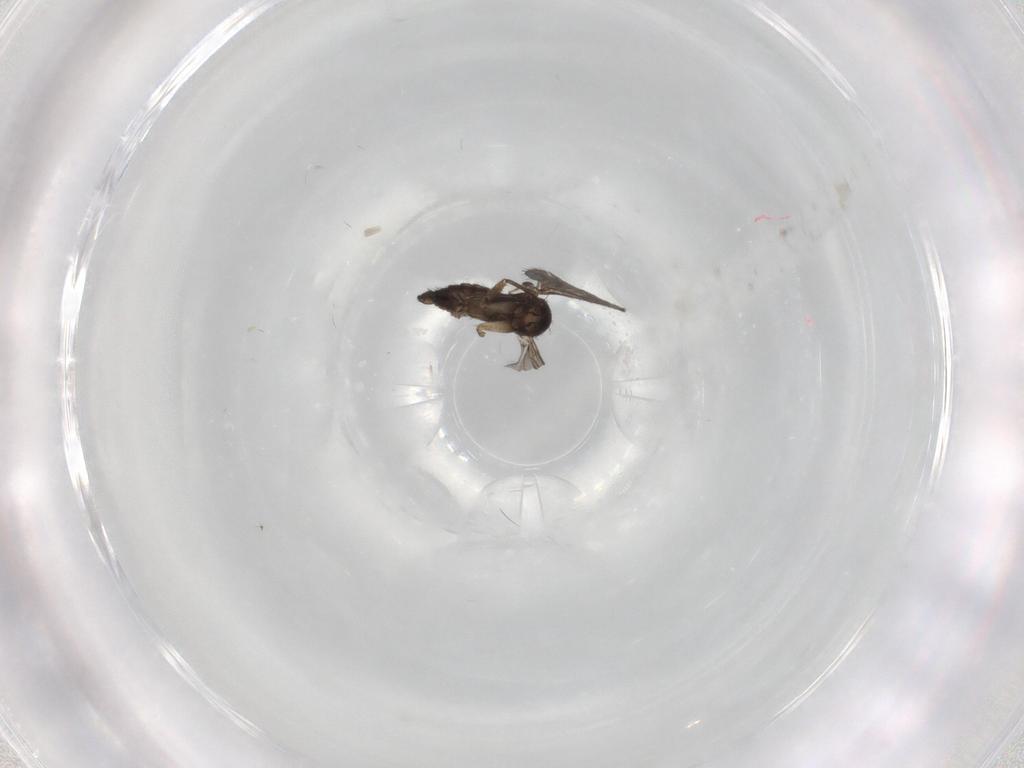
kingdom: Animalia
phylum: Arthropoda
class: Insecta
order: Diptera
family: Sciaridae
